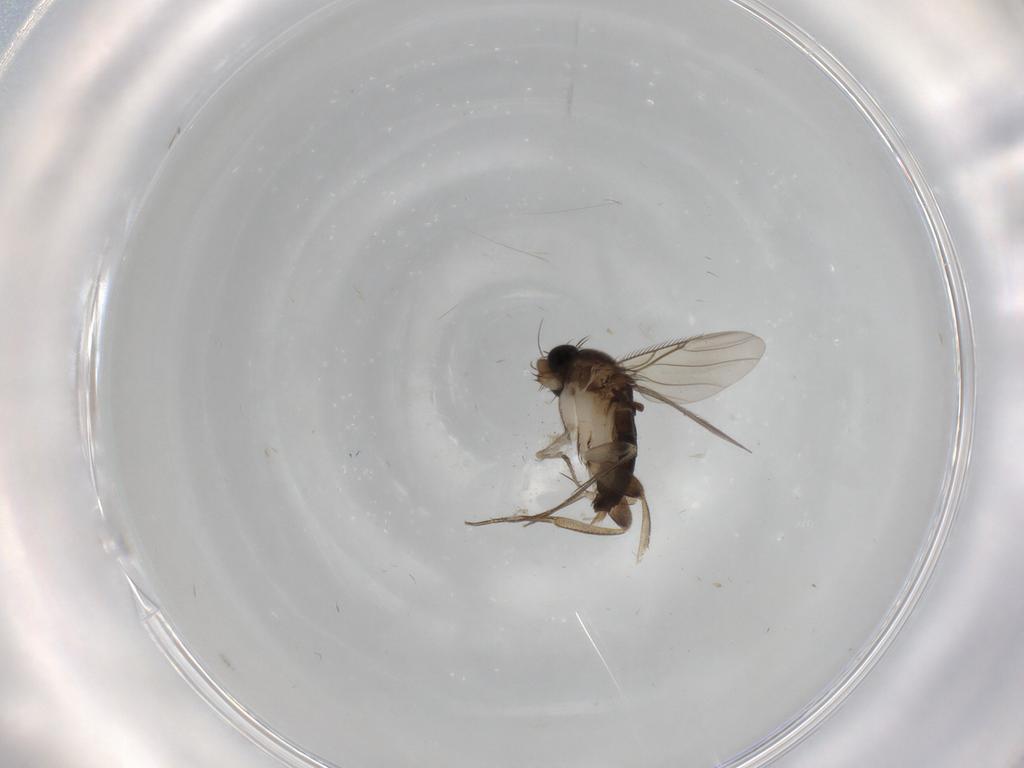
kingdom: Animalia
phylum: Arthropoda
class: Insecta
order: Diptera
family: Phoridae
